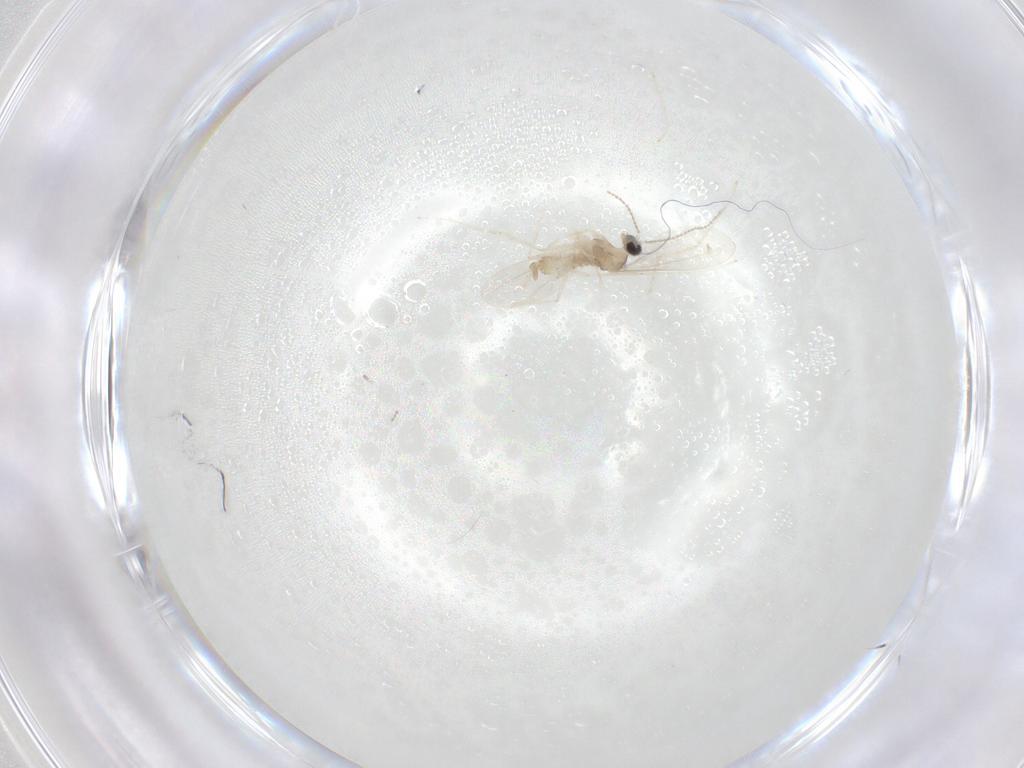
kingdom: Animalia
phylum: Arthropoda
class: Insecta
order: Diptera
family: Cecidomyiidae
